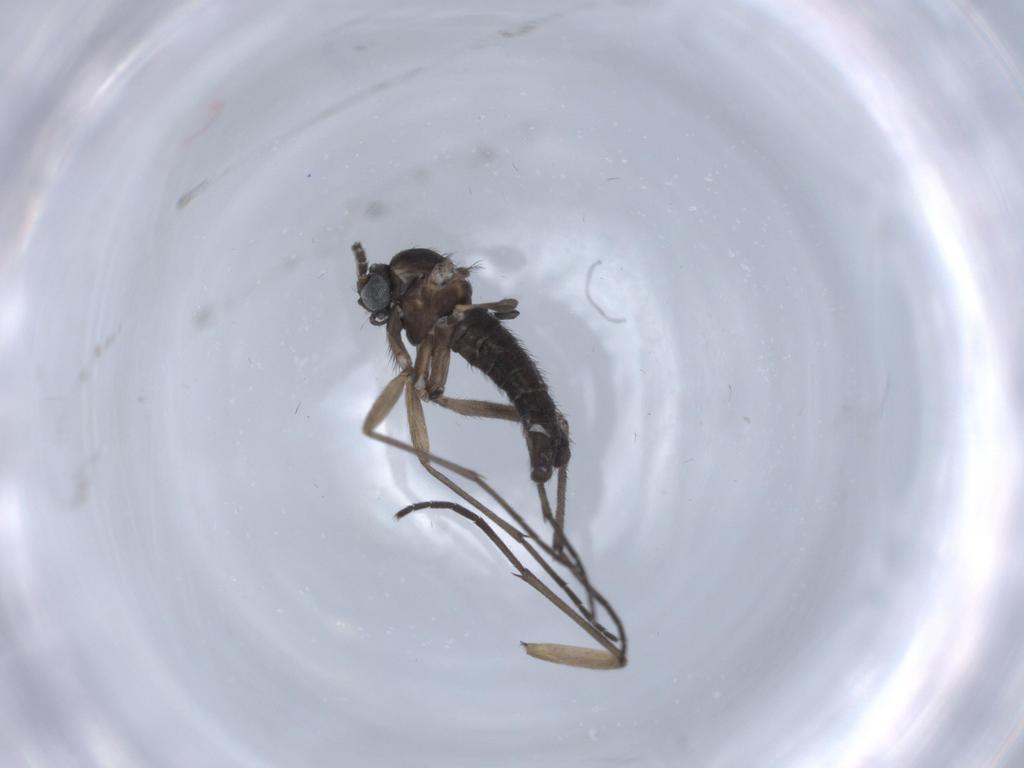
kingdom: Animalia
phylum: Arthropoda
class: Insecta
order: Diptera
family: Sciaridae
